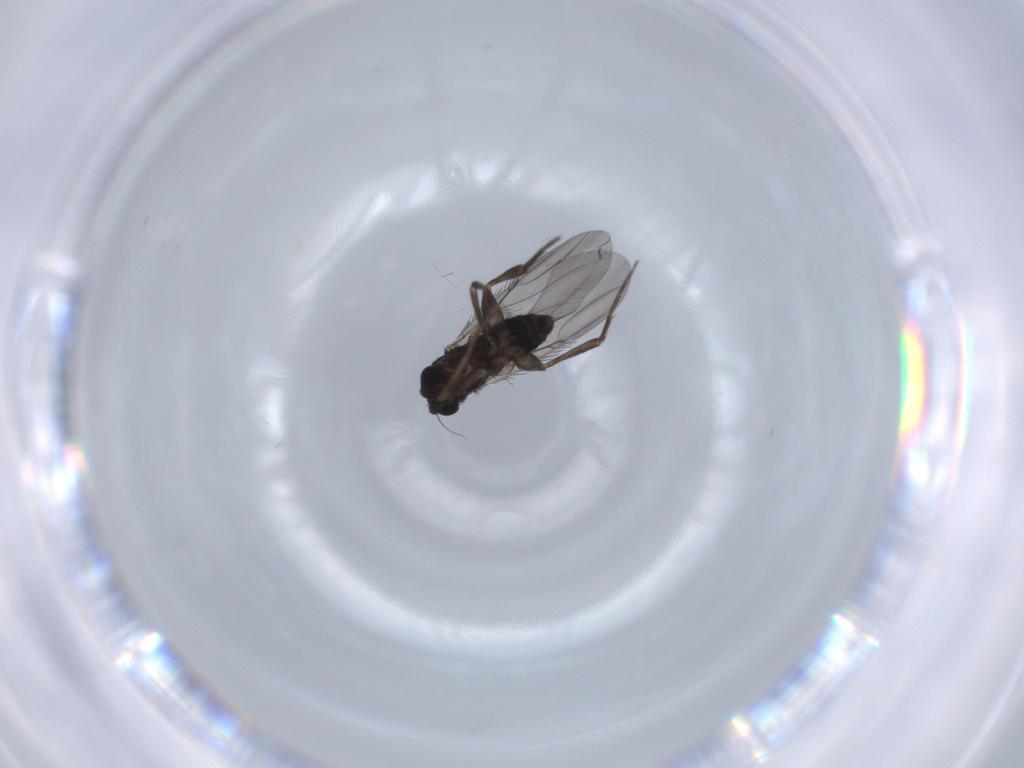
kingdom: Animalia
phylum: Arthropoda
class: Insecta
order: Diptera
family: Phoridae
